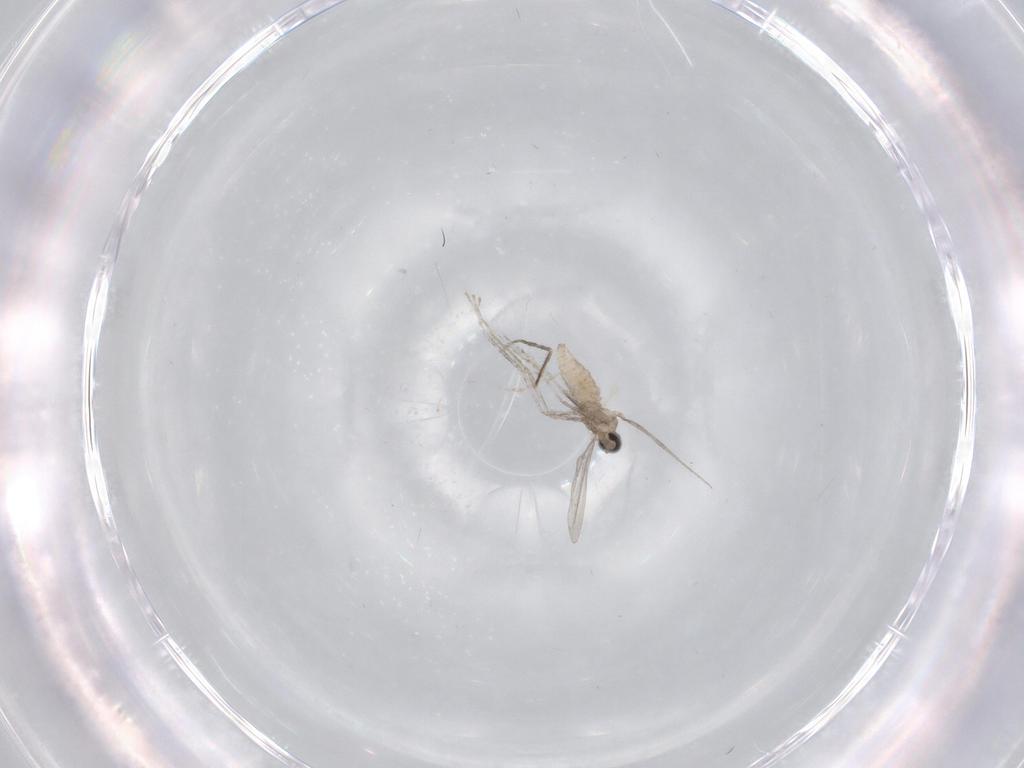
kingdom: Animalia
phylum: Arthropoda
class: Insecta
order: Diptera
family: Cecidomyiidae
